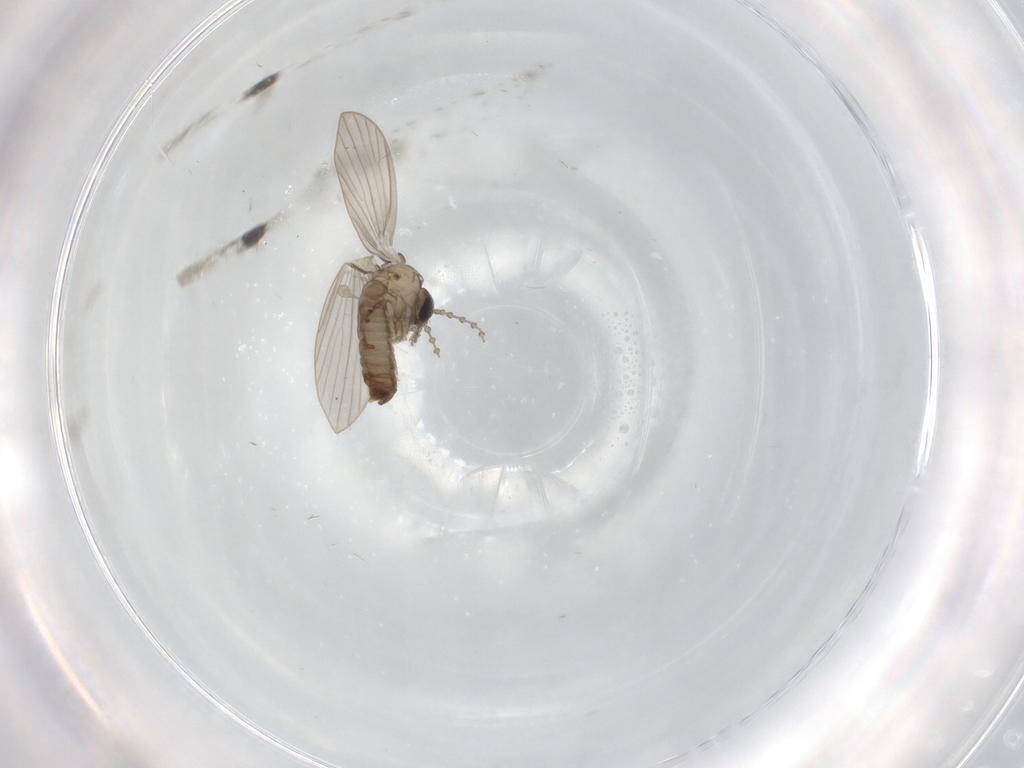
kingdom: Animalia
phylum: Arthropoda
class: Insecta
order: Diptera
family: Psychodidae
